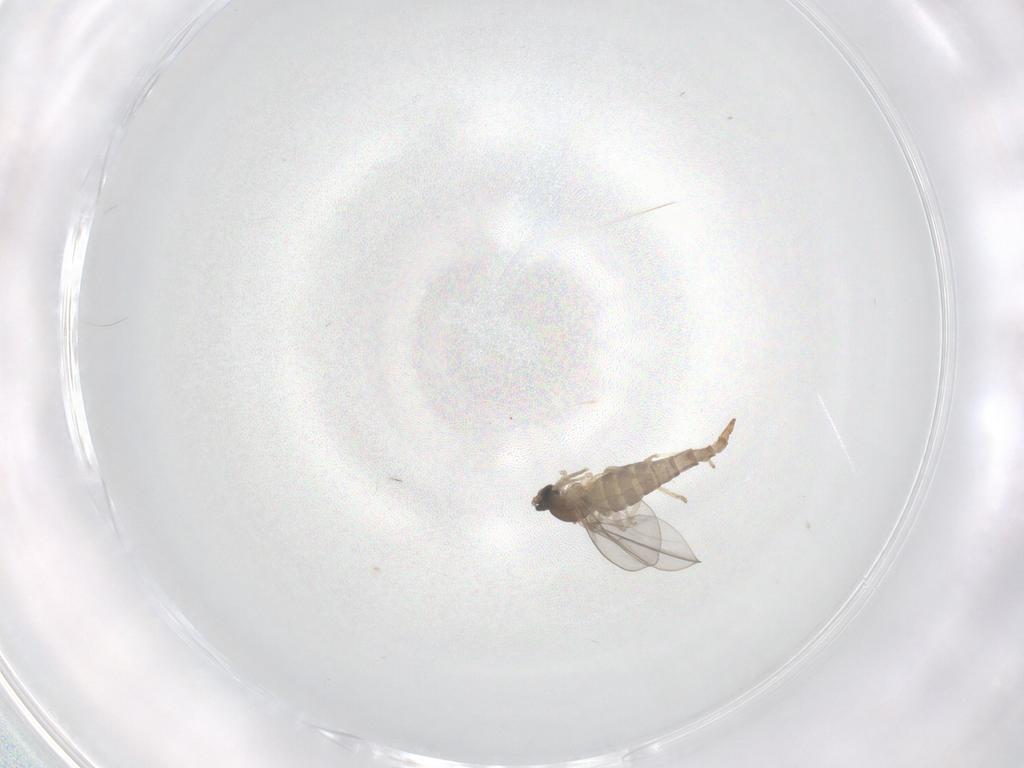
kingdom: Animalia
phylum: Arthropoda
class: Insecta
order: Diptera
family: Cecidomyiidae
